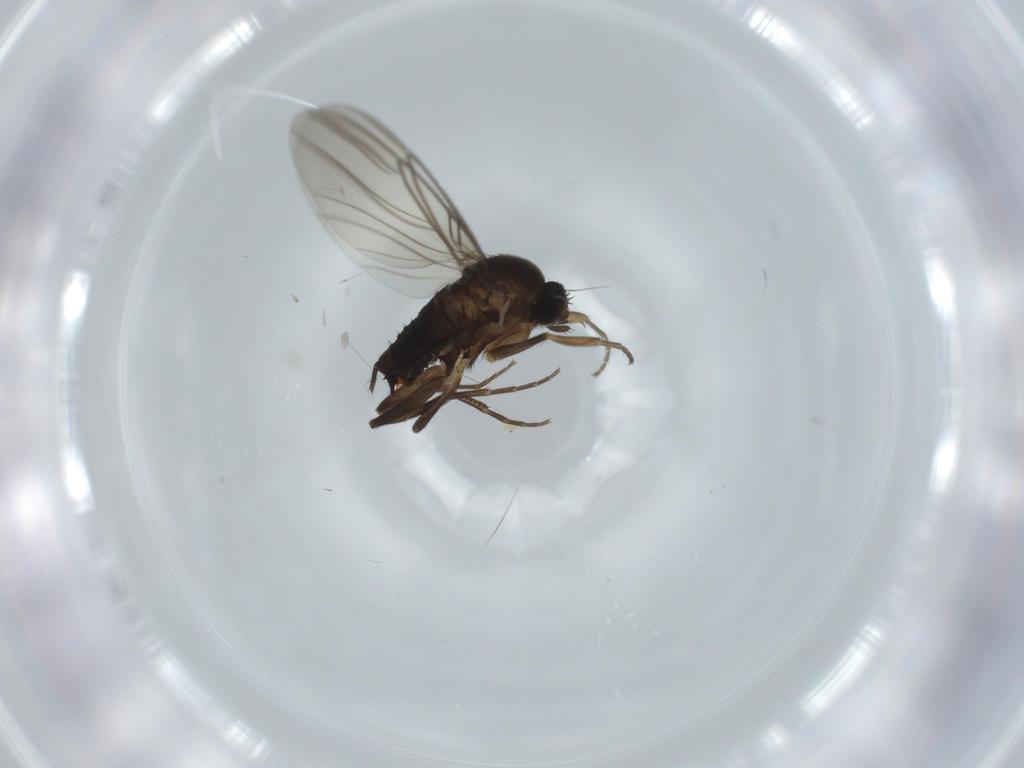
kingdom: Animalia
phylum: Arthropoda
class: Insecta
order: Diptera
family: Milichiidae
